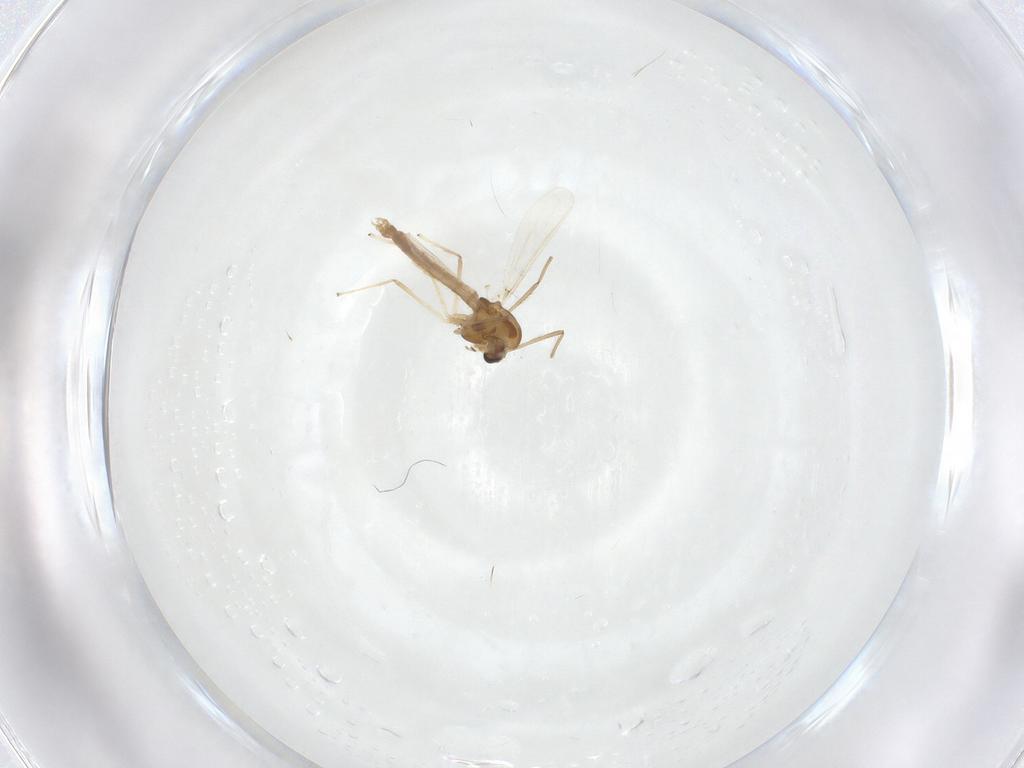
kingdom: Animalia
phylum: Arthropoda
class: Insecta
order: Diptera
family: Chironomidae
